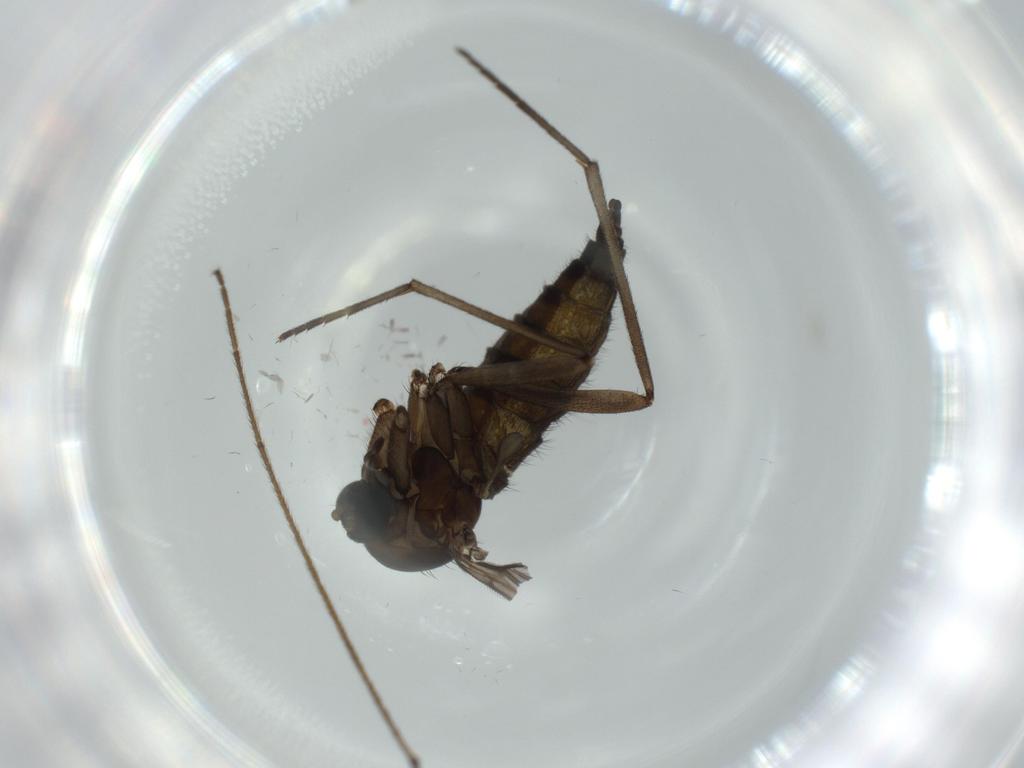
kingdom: Animalia
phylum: Arthropoda
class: Insecta
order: Diptera
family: Sciaridae
